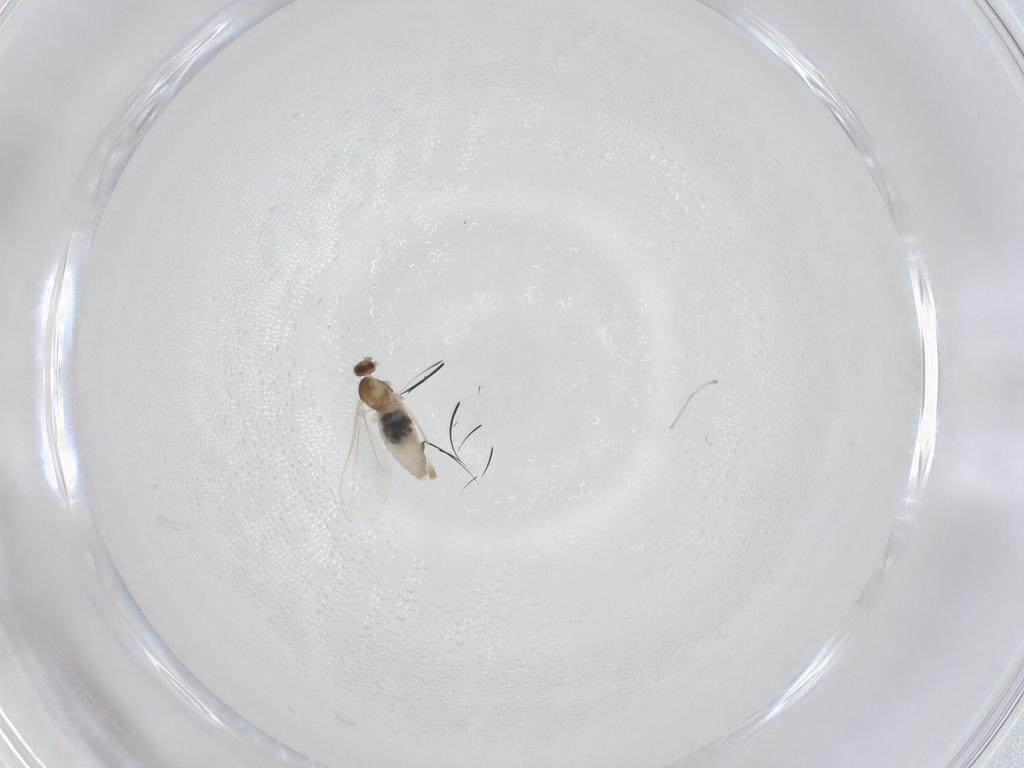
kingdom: Animalia
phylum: Arthropoda
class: Insecta
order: Diptera
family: Cecidomyiidae
